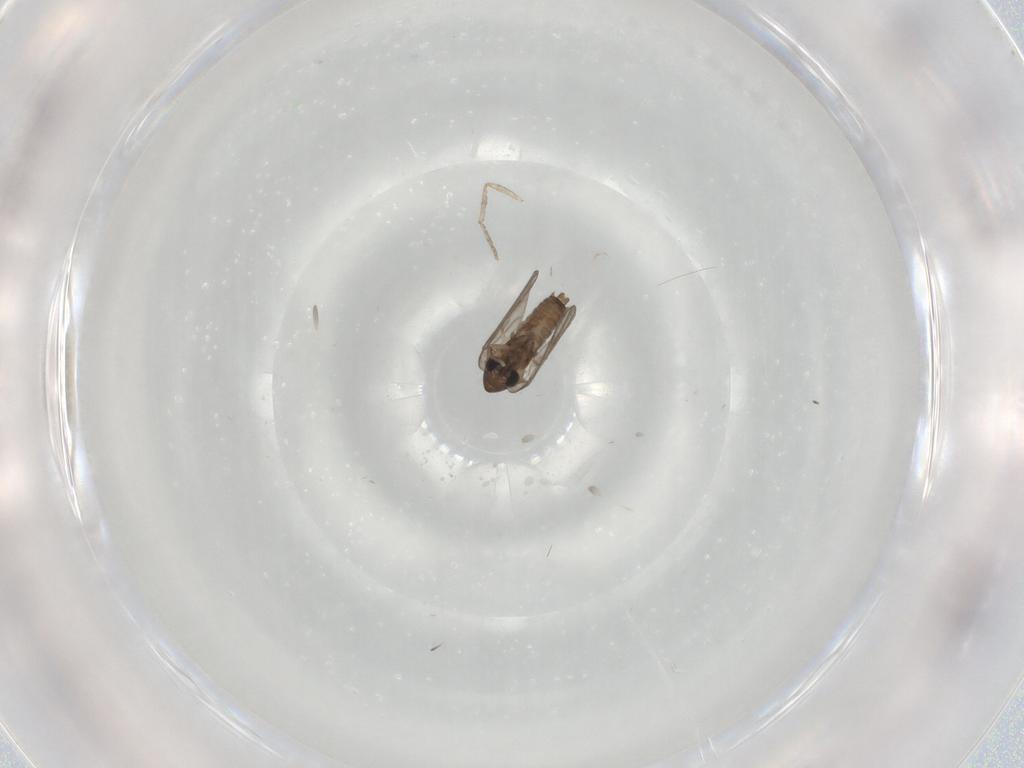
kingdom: Animalia
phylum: Arthropoda
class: Insecta
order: Diptera
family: Psychodidae
